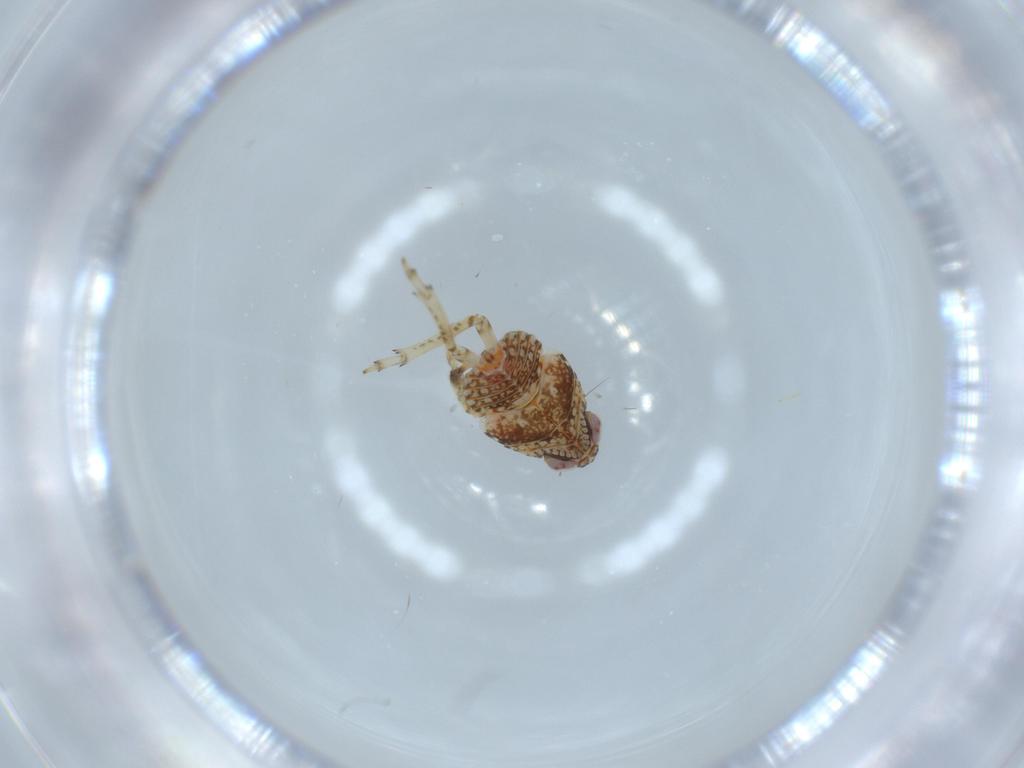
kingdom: Animalia
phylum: Arthropoda
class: Insecta
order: Hemiptera
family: Issidae
